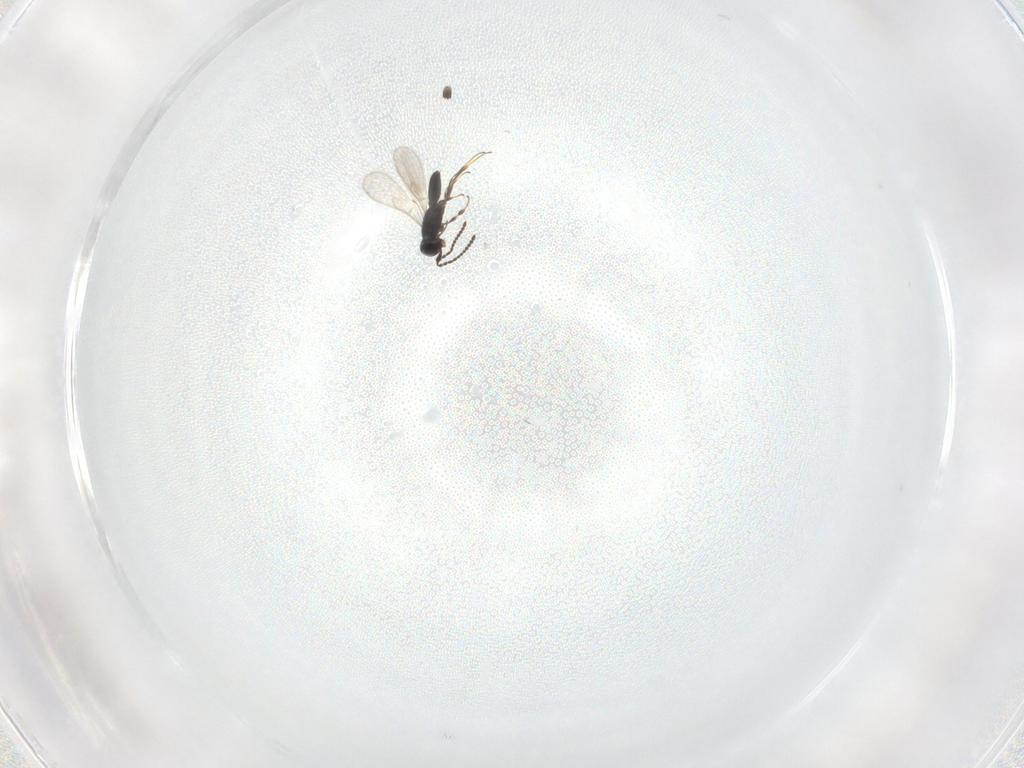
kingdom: Animalia
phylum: Arthropoda
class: Insecta
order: Hymenoptera
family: Scelionidae
